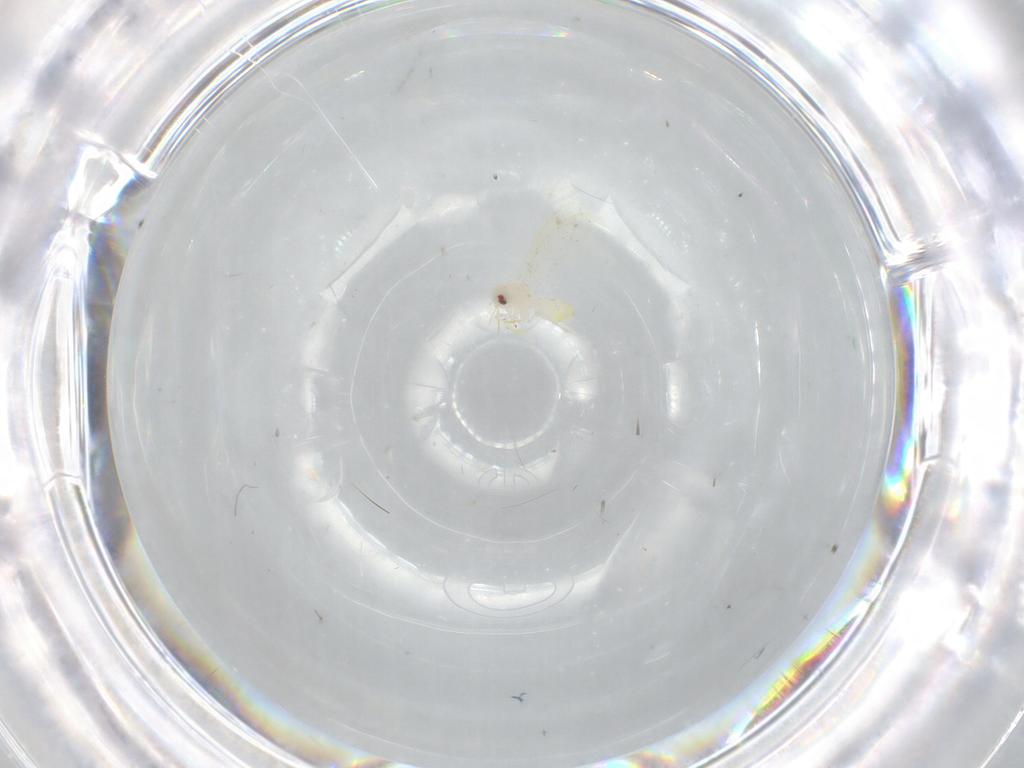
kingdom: Animalia
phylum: Arthropoda
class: Insecta
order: Hemiptera
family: Aleyrodidae
